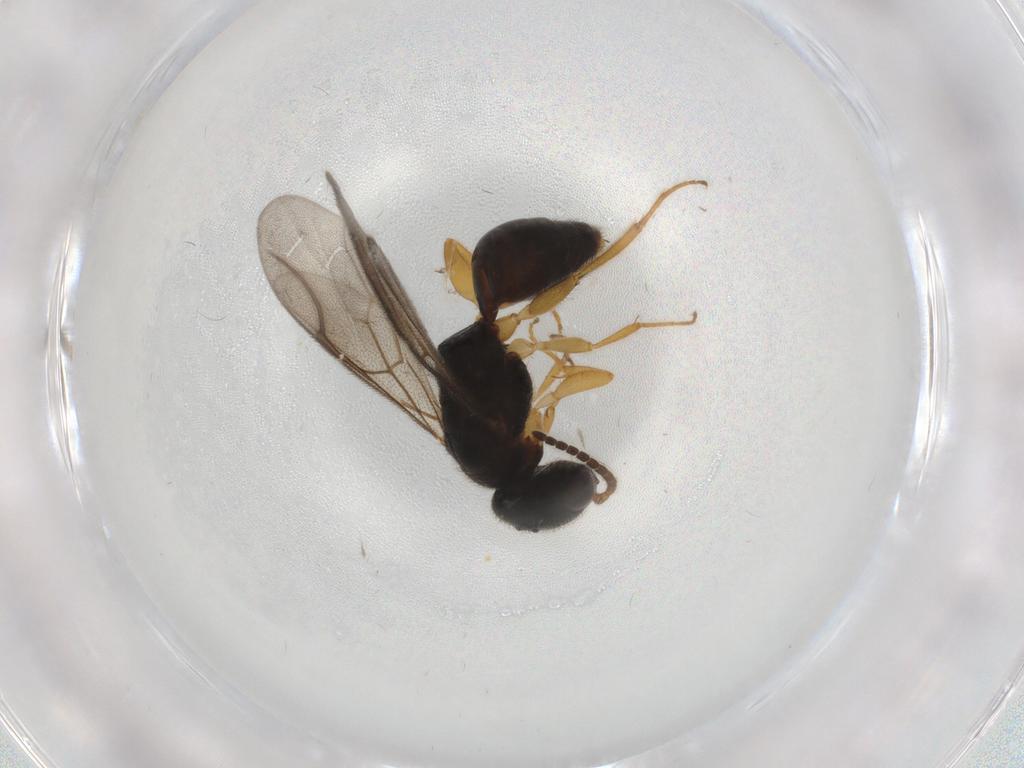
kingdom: Animalia
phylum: Arthropoda
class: Insecta
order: Hymenoptera
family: Bethylidae
